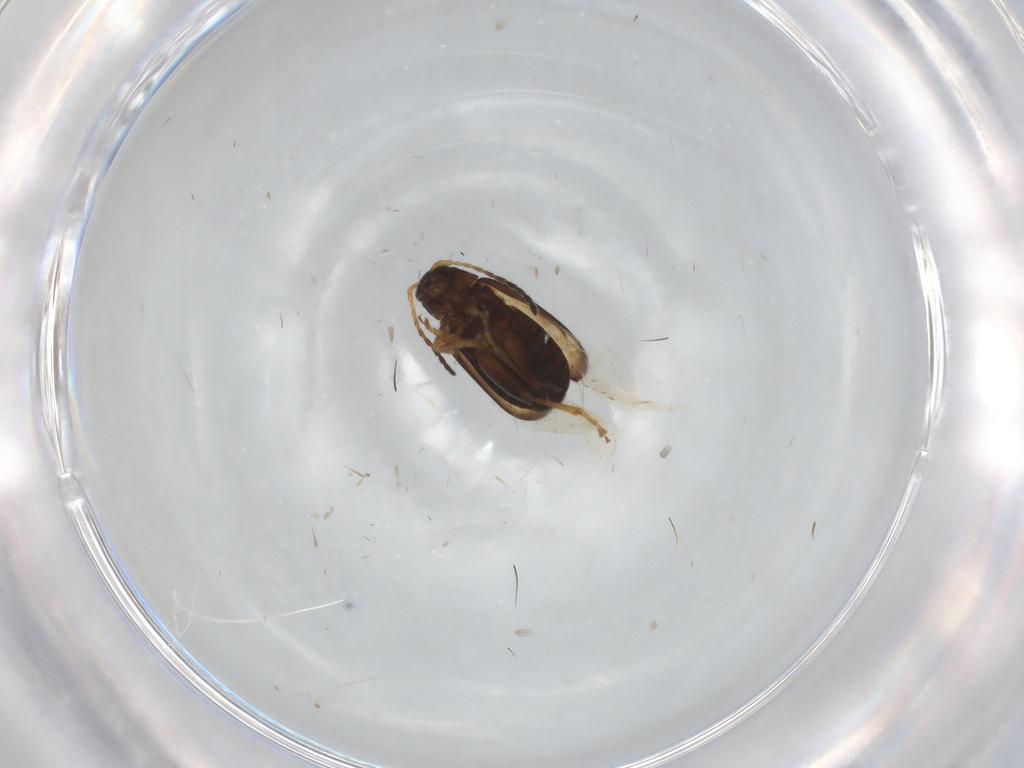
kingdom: Animalia
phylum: Arthropoda
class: Insecta
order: Coleoptera
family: Chrysomelidae
